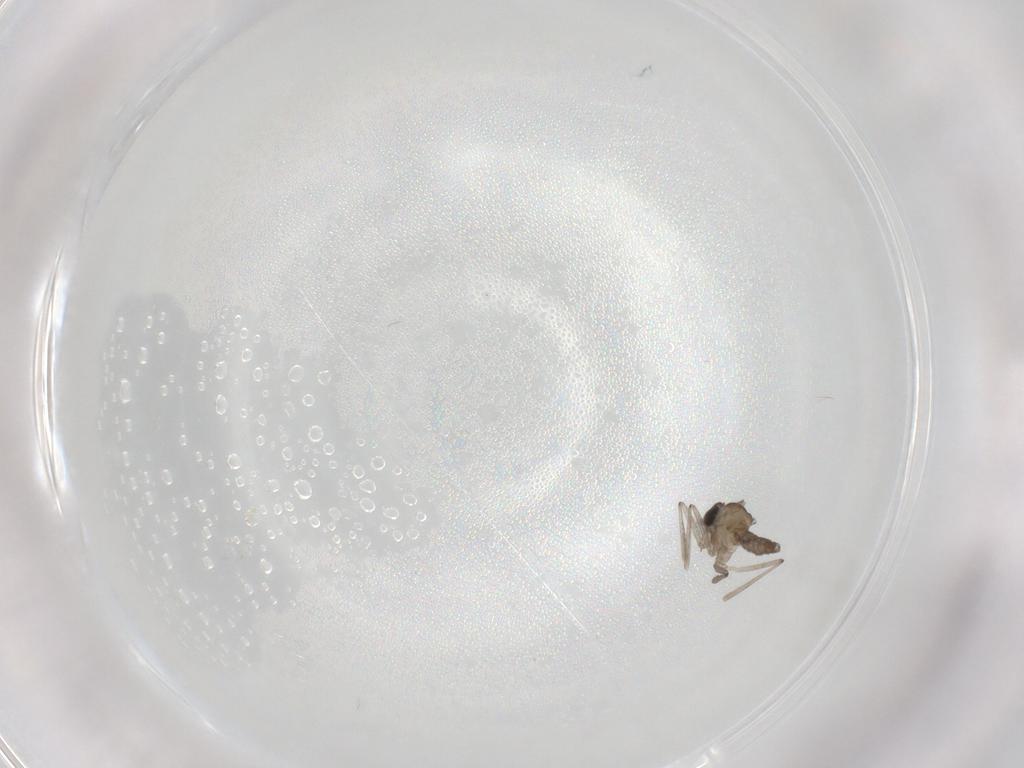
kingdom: Animalia
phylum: Arthropoda
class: Insecta
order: Diptera
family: Cecidomyiidae
